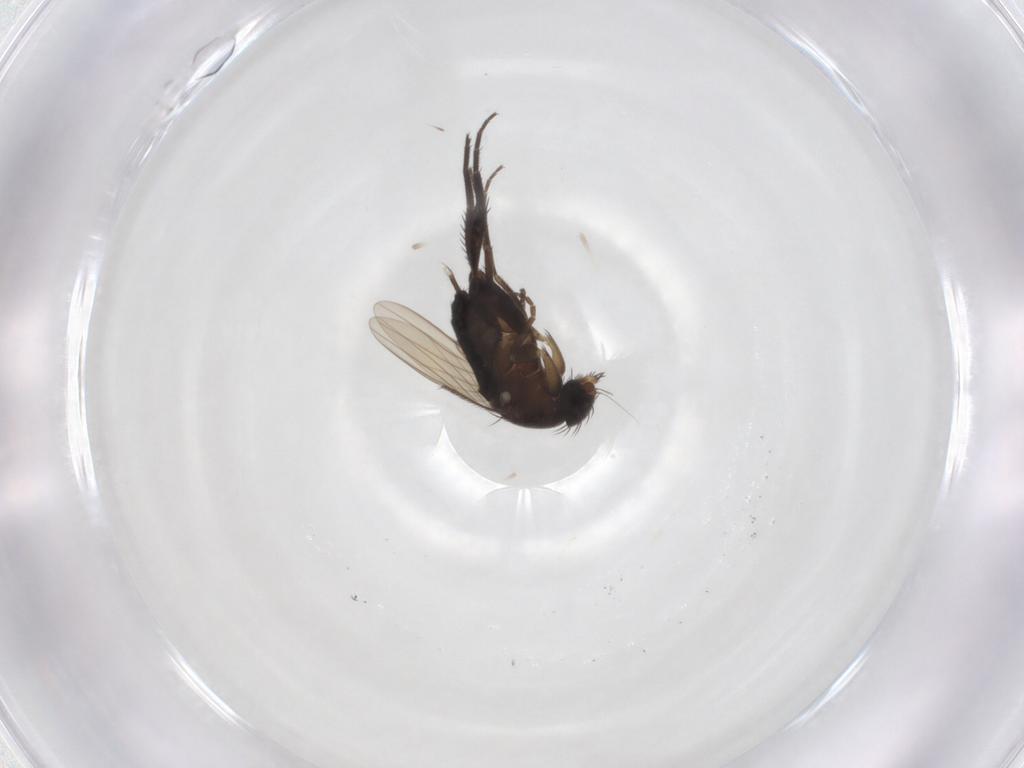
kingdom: Animalia
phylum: Arthropoda
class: Insecta
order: Diptera
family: Phoridae
